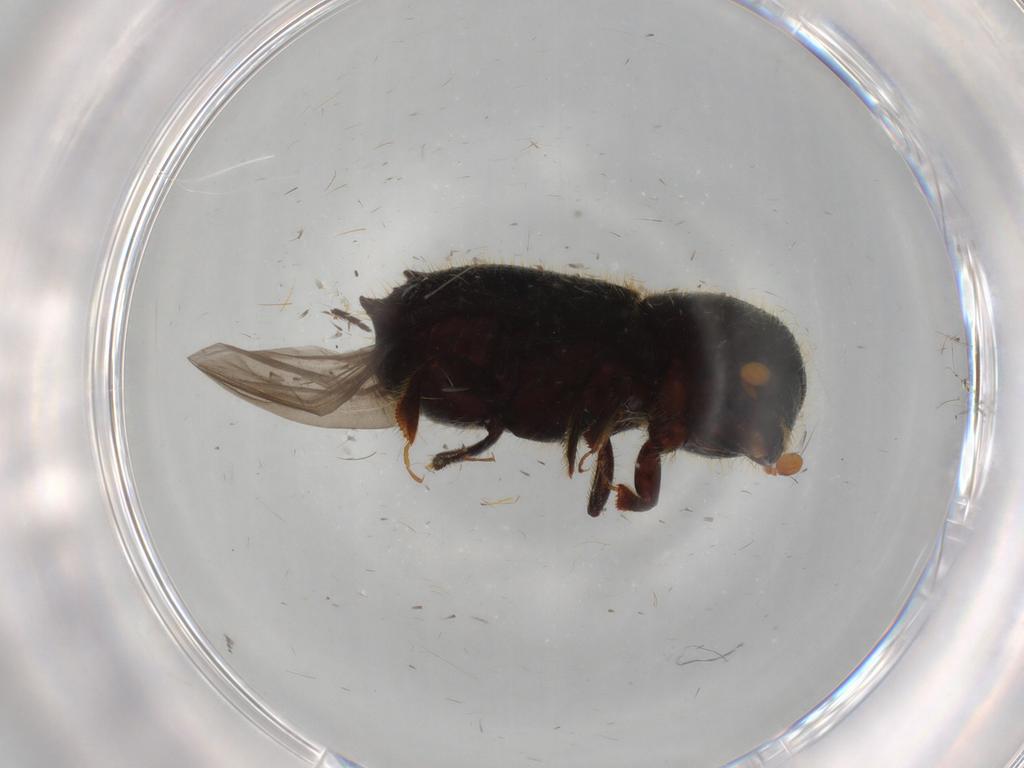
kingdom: Animalia
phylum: Arthropoda
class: Insecta
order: Coleoptera
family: Curculionidae
